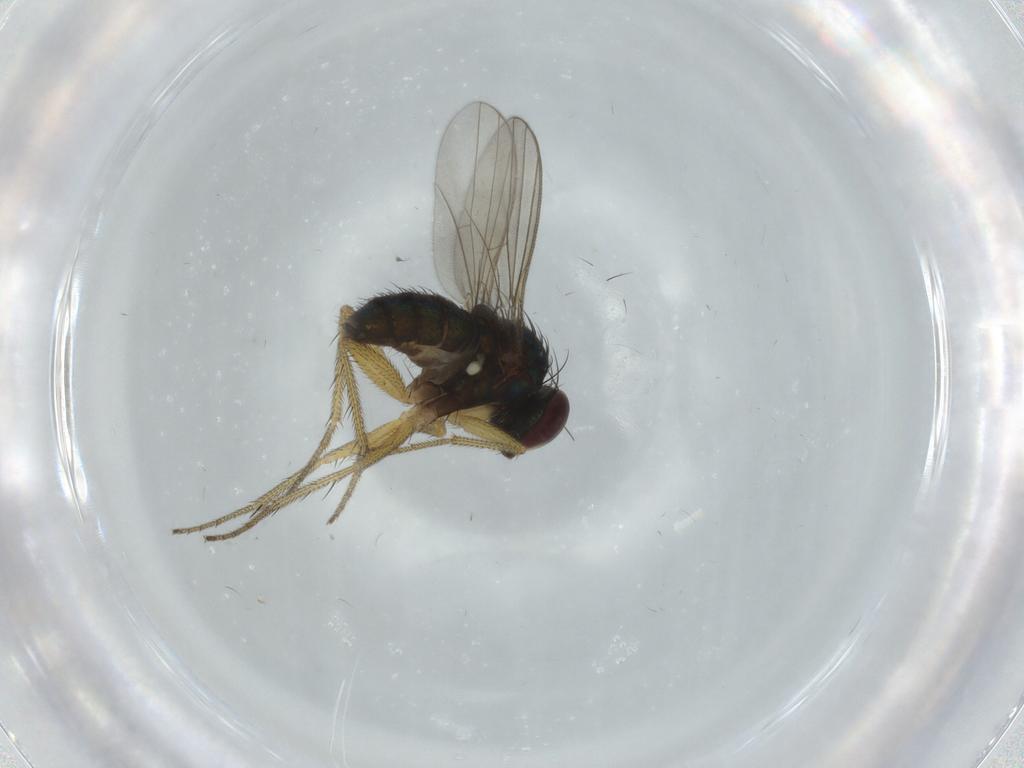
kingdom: Animalia
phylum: Arthropoda
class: Insecta
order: Diptera
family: Dolichopodidae
